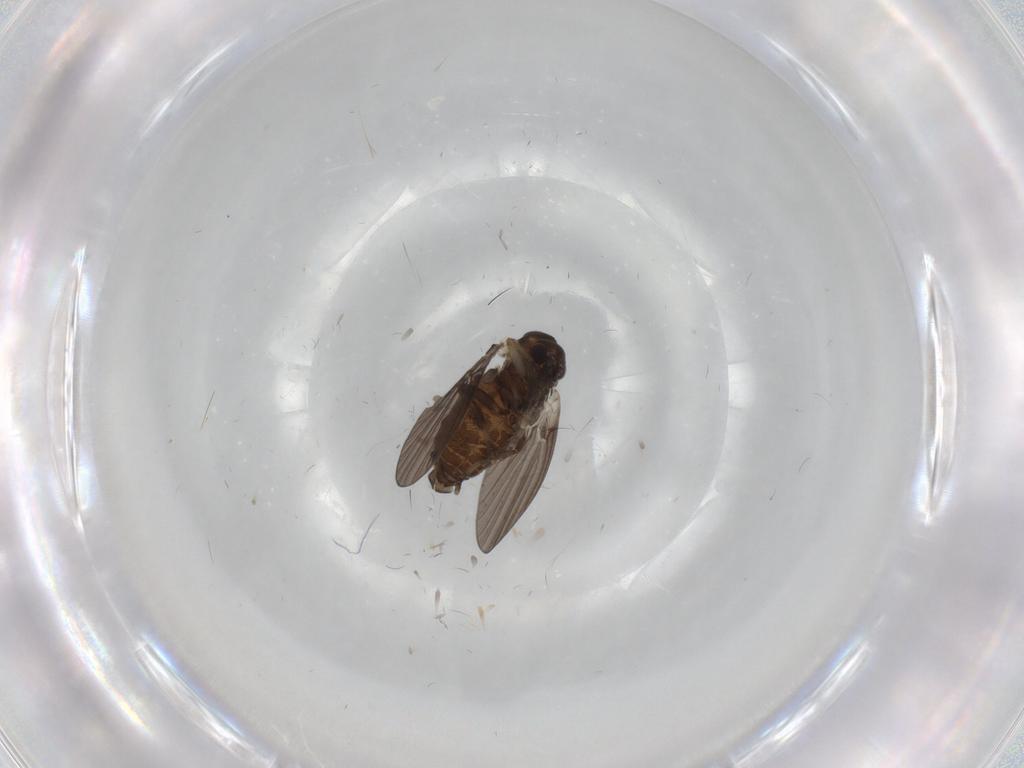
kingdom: Animalia
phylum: Arthropoda
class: Insecta
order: Diptera
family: Psychodidae
